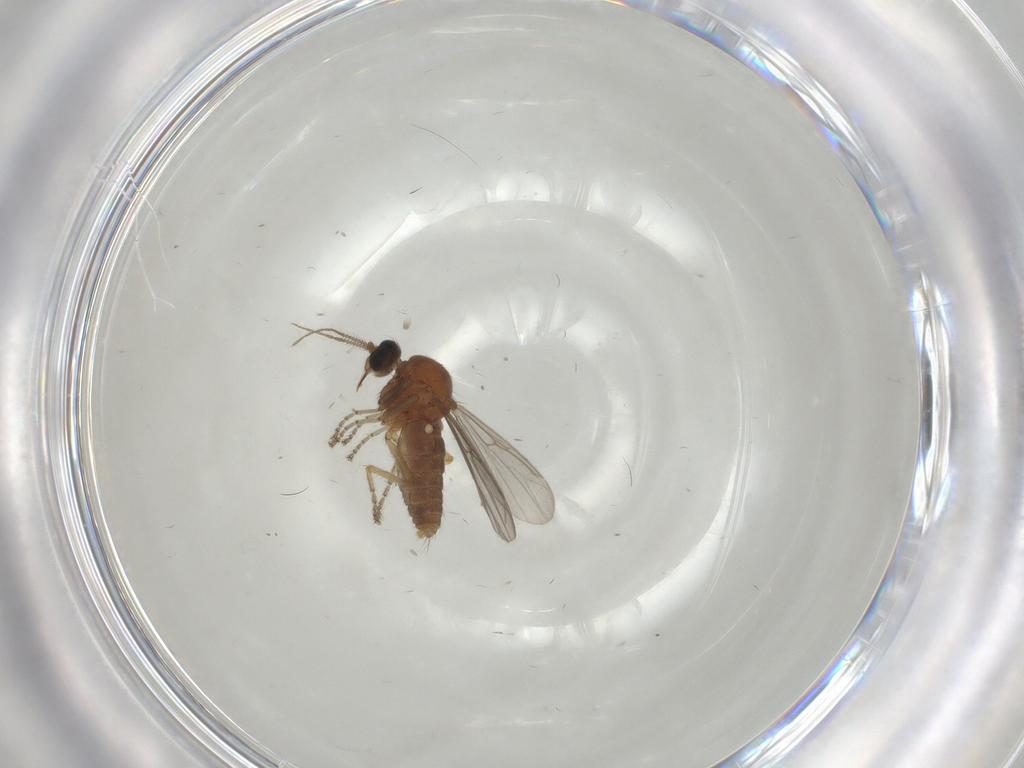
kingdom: Animalia
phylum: Arthropoda
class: Insecta
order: Diptera
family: Ceratopogonidae
